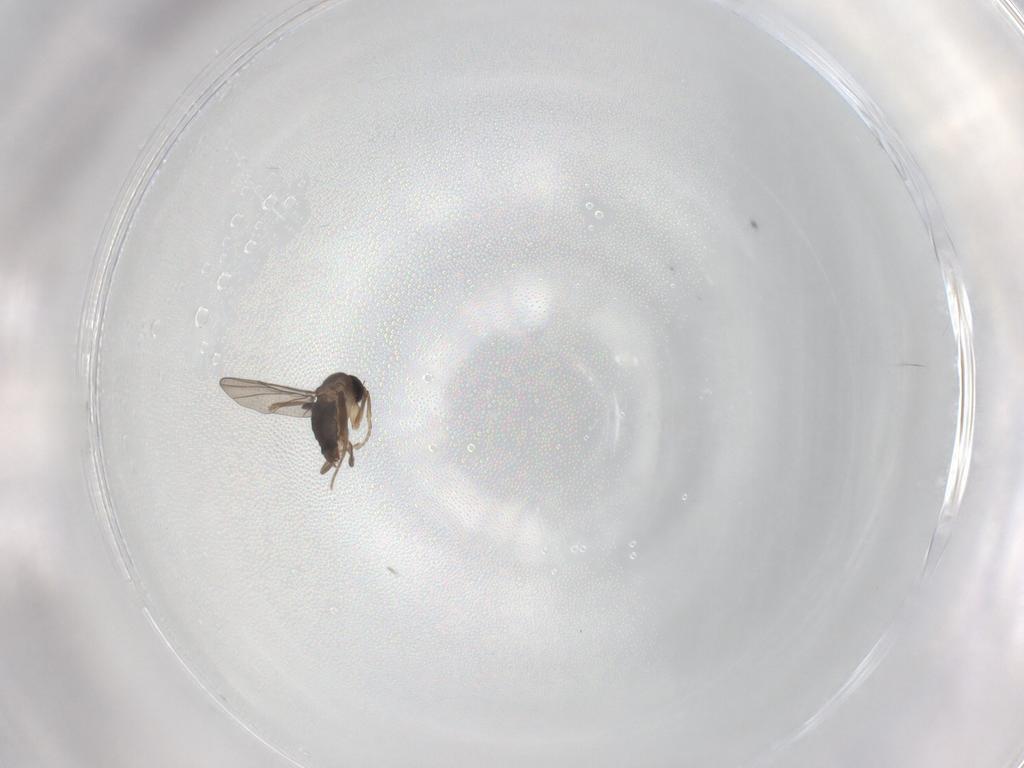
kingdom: Animalia
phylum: Arthropoda
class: Insecta
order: Diptera
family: Phoridae
